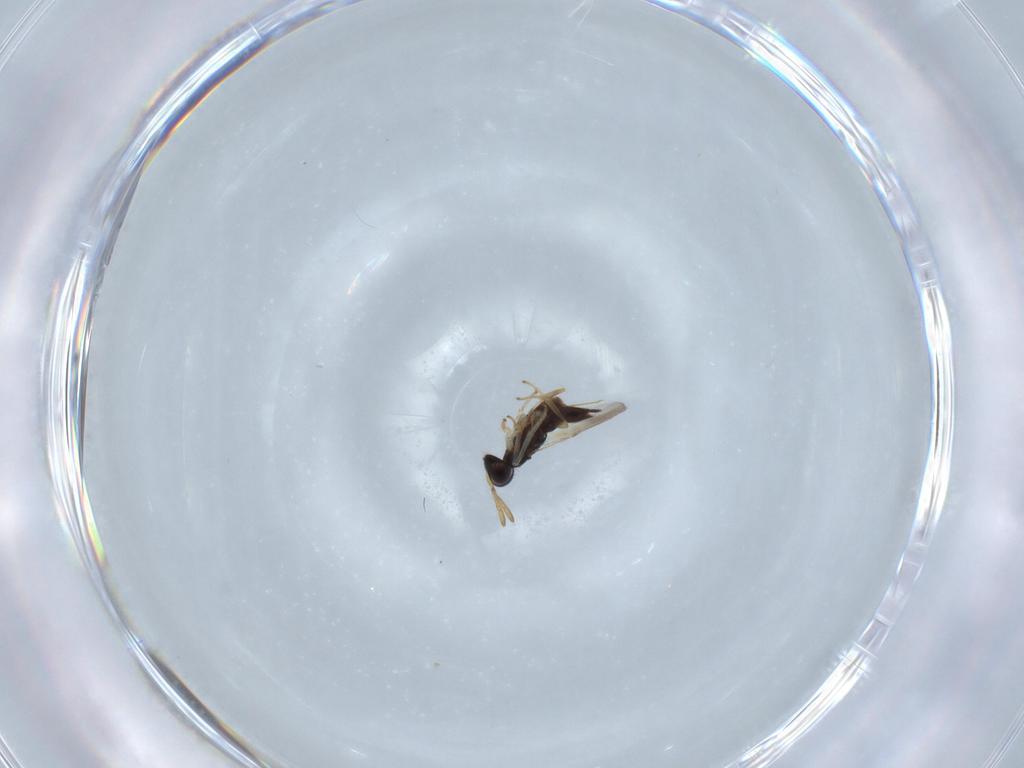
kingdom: Animalia
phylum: Arthropoda
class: Insecta
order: Hymenoptera
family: Encyrtidae
